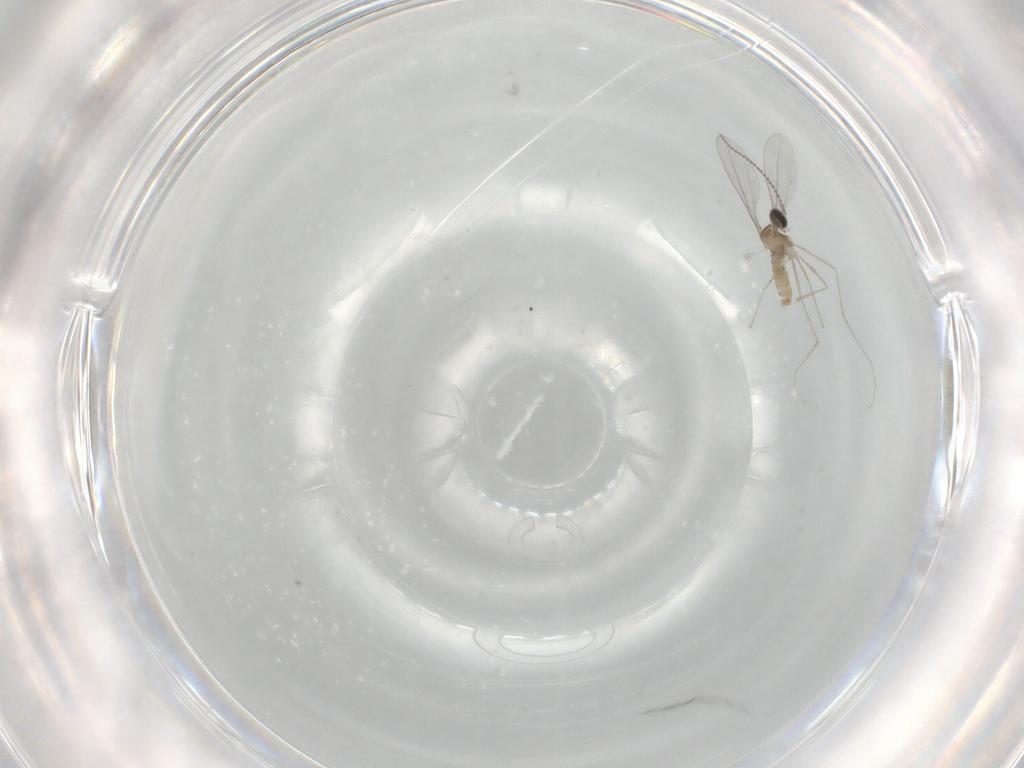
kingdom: Animalia
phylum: Arthropoda
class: Insecta
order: Diptera
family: Cecidomyiidae
